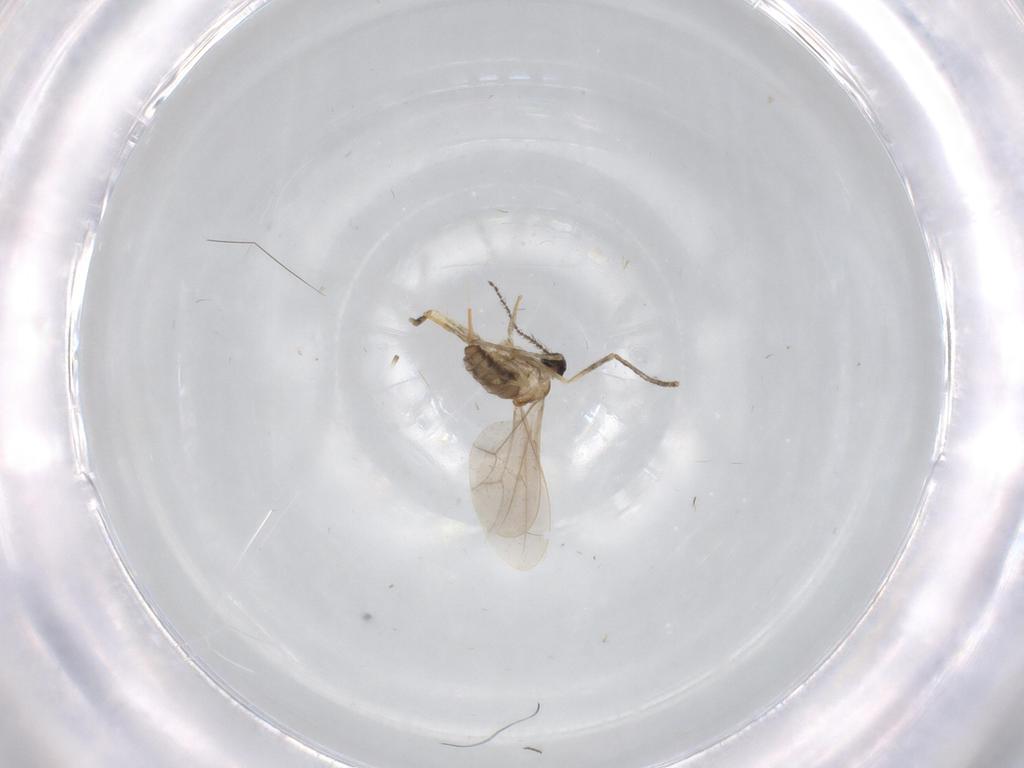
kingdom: Animalia
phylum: Arthropoda
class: Insecta
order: Diptera
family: Ceratopogonidae
